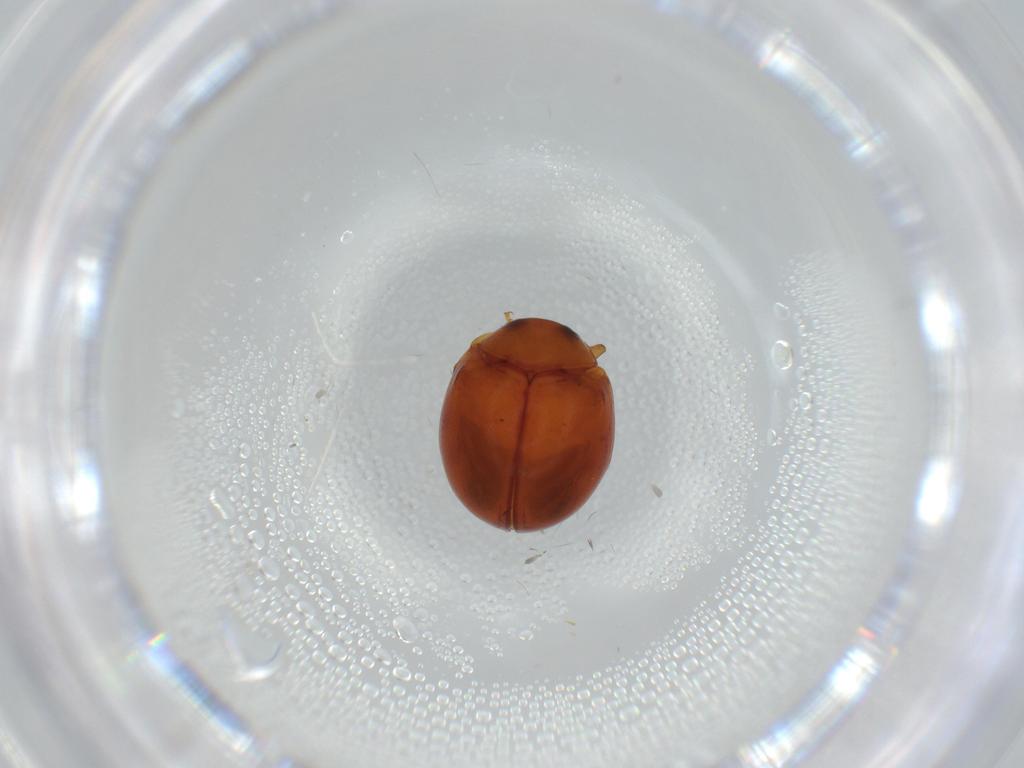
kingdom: Animalia
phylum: Arthropoda
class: Insecta
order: Coleoptera
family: Coccinellidae
